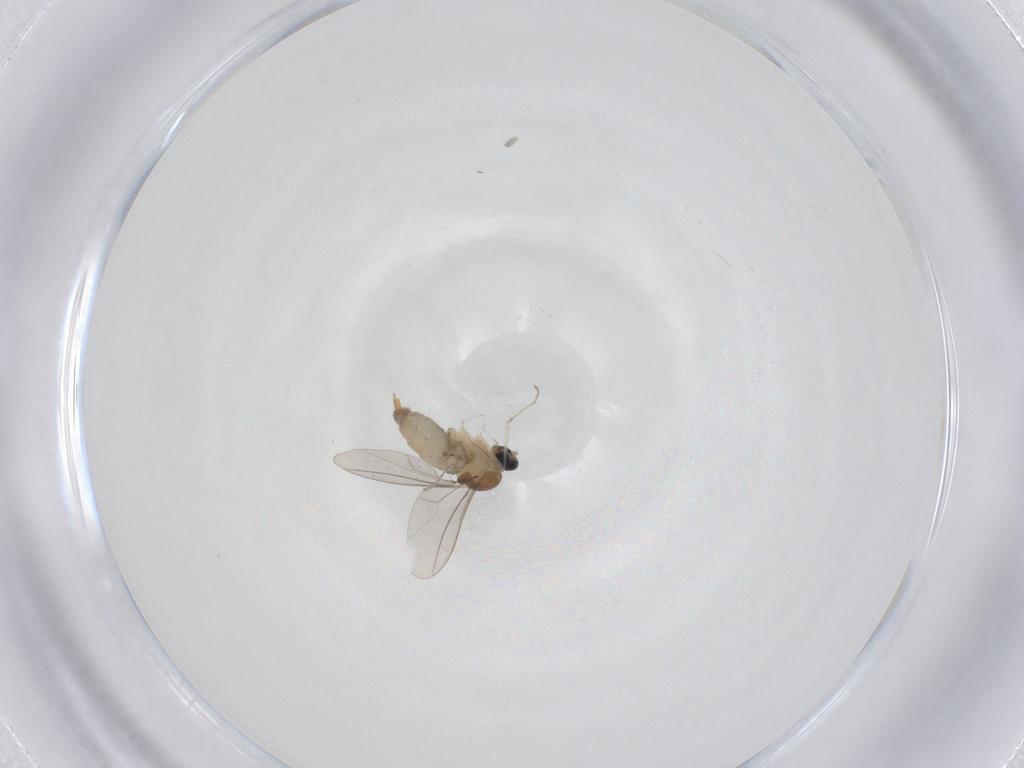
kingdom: Animalia
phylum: Arthropoda
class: Insecta
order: Diptera
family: Cecidomyiidae
